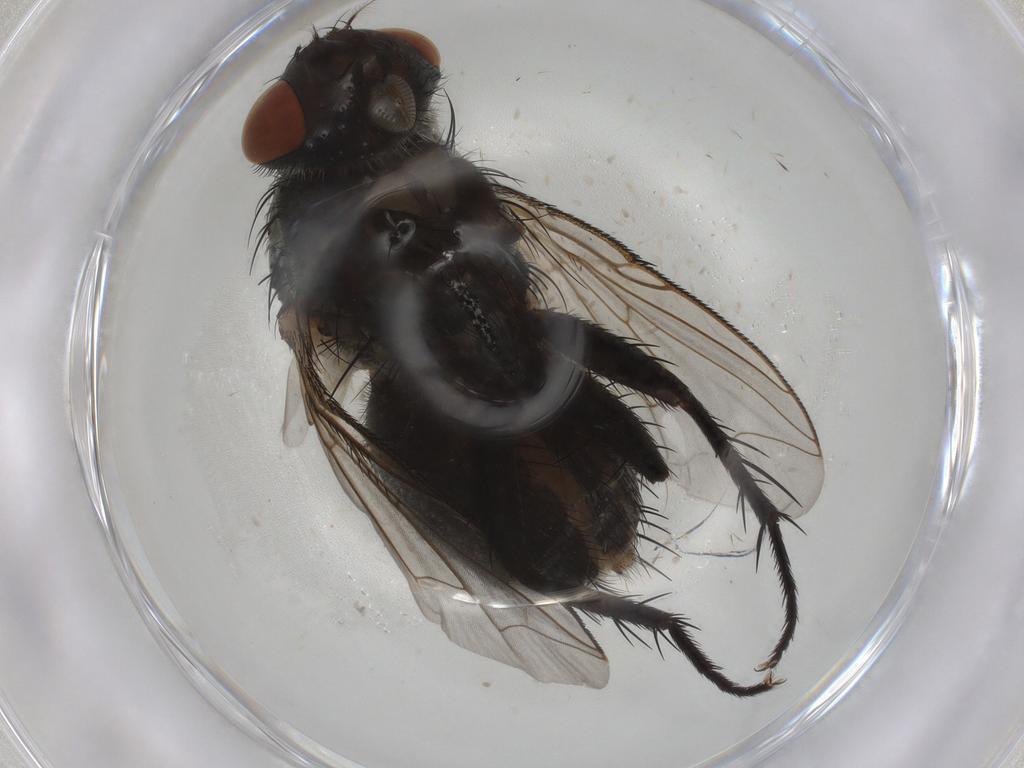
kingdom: Animalia
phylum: Arthropoda
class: Insecta
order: Diptera
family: Sarcophagidae
